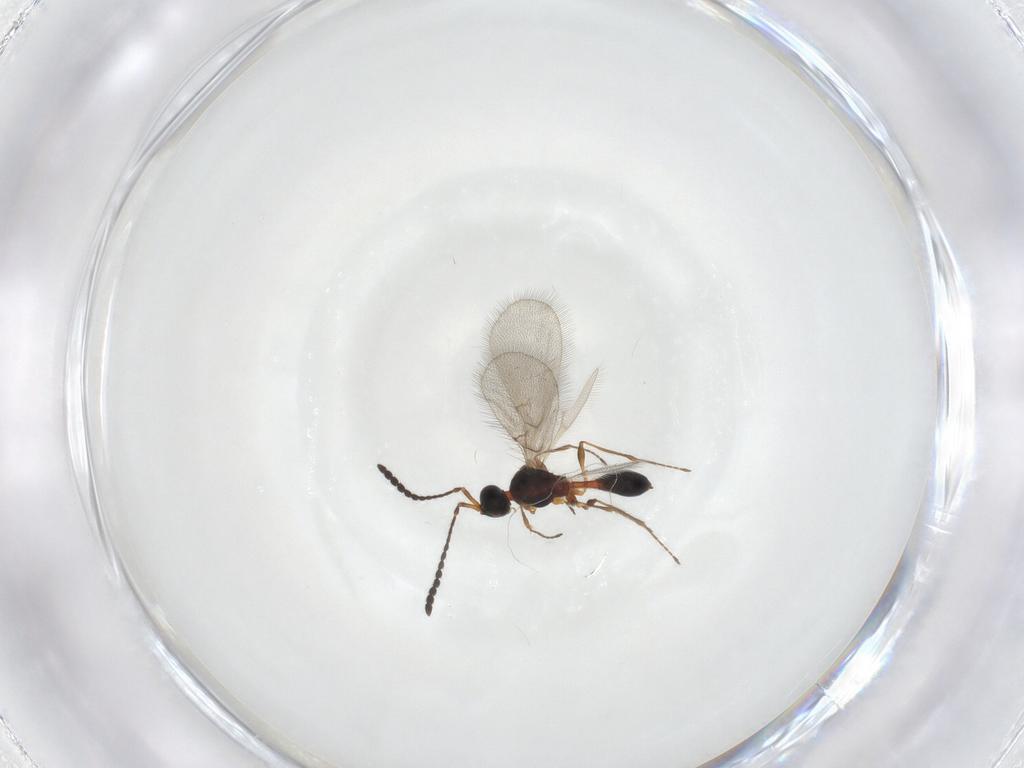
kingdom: Animalia
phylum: Arthropoda
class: Insecta
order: Hymenoptera
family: Diapriidae
